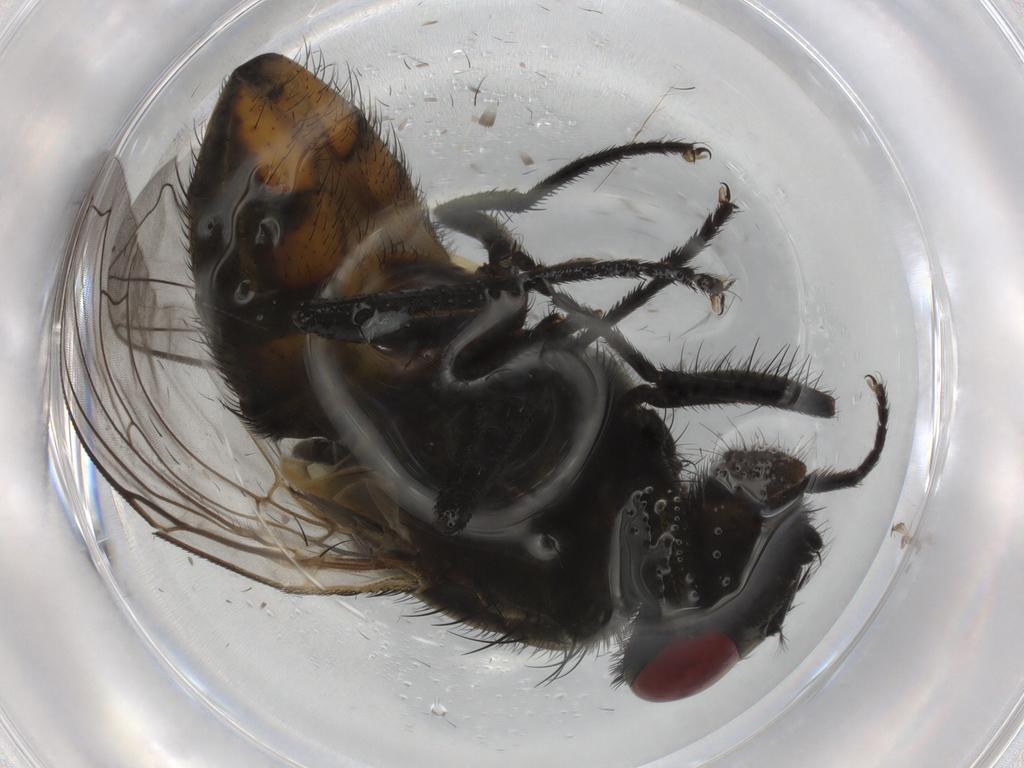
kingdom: Animalia
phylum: Arthropoda
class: Insecta
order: Diptera
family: Muscidae
